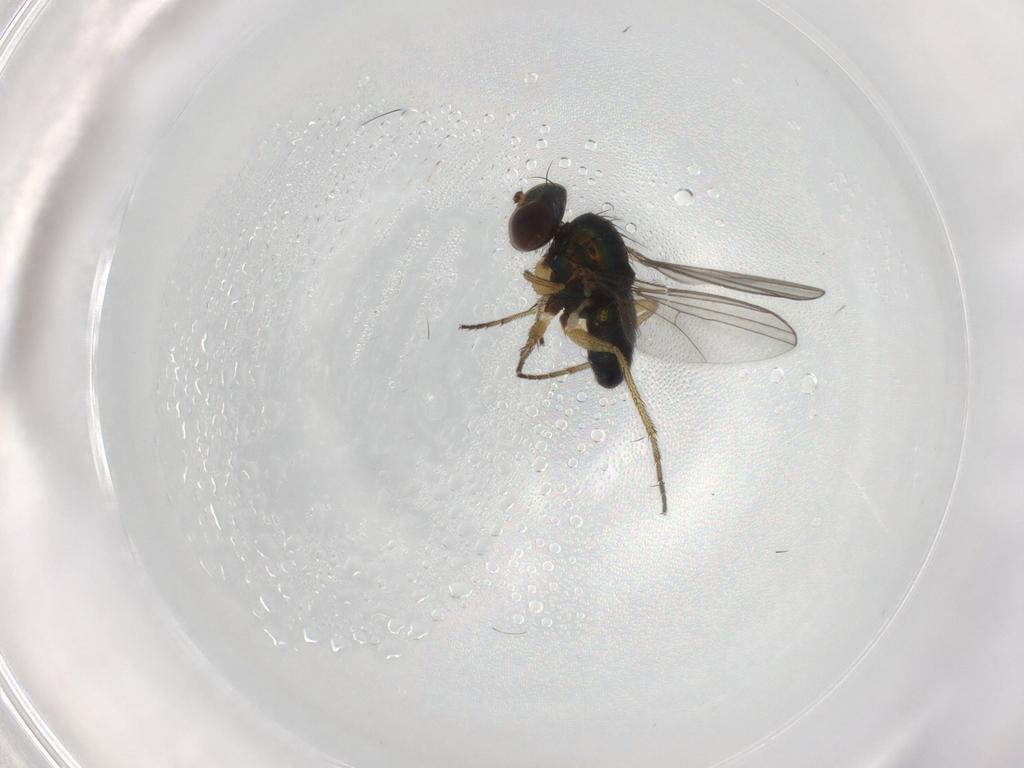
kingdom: Animalia
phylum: Arthropoda
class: Insecta
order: Diptera
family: Dolichopodidae
